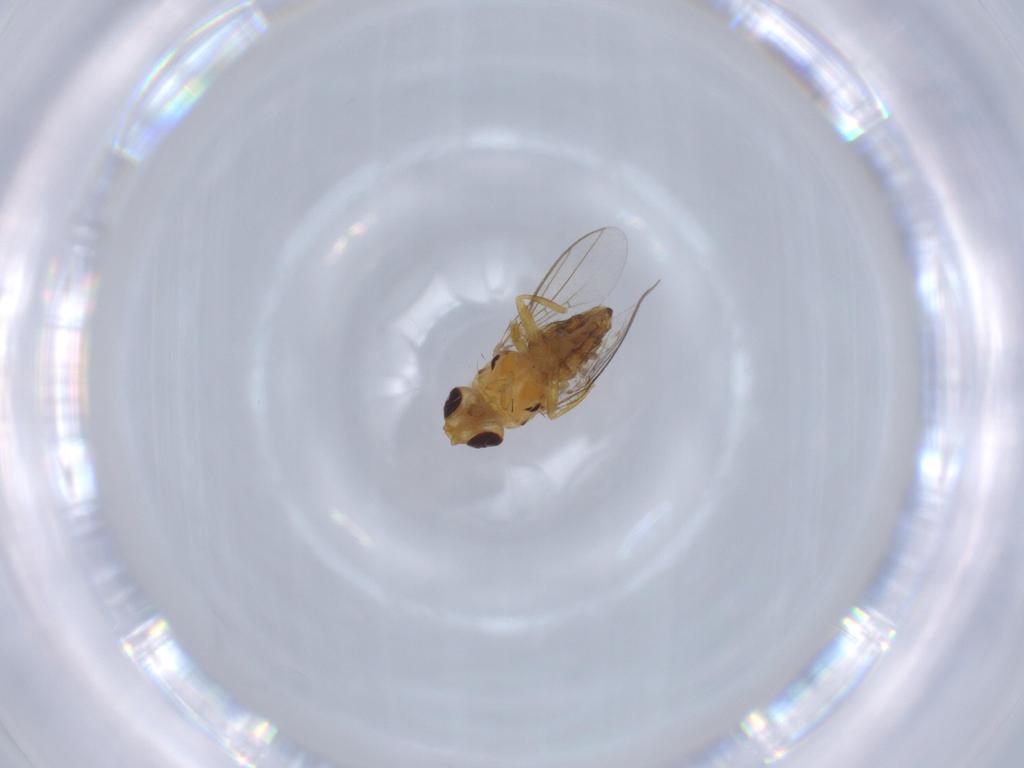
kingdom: Animalia
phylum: Arthropoda
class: Insecta
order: Diptera
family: Chloropidae
